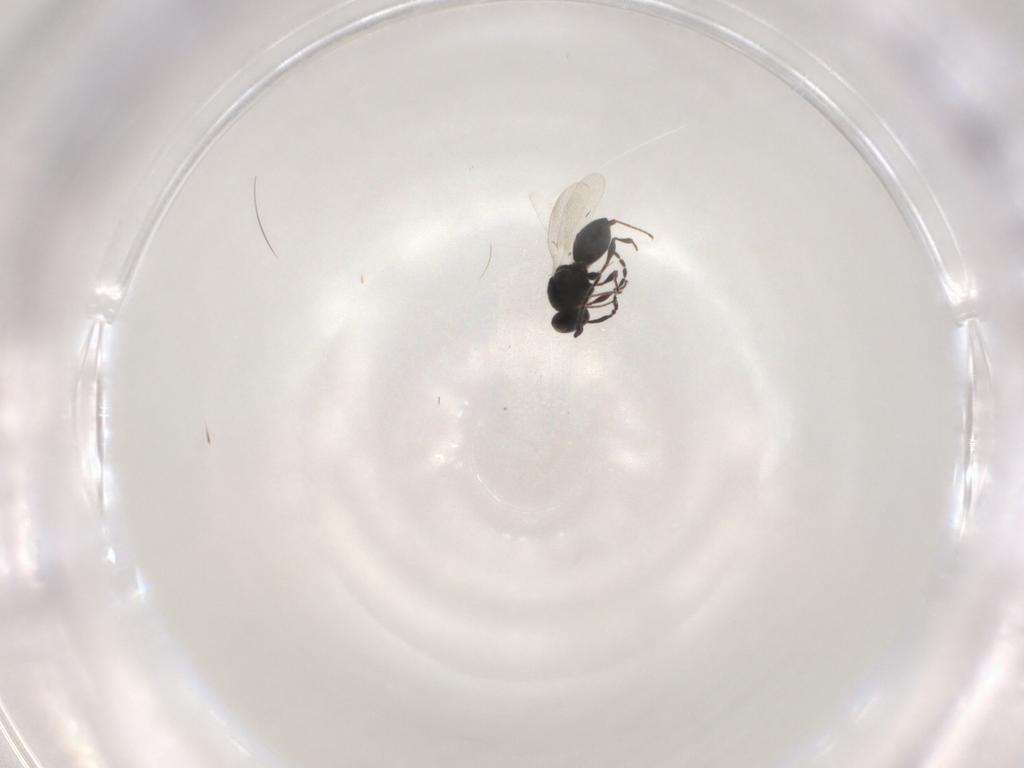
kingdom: Animalia
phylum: Arthropoda
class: Insecta
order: Hymenoptera
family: Platygastridae
